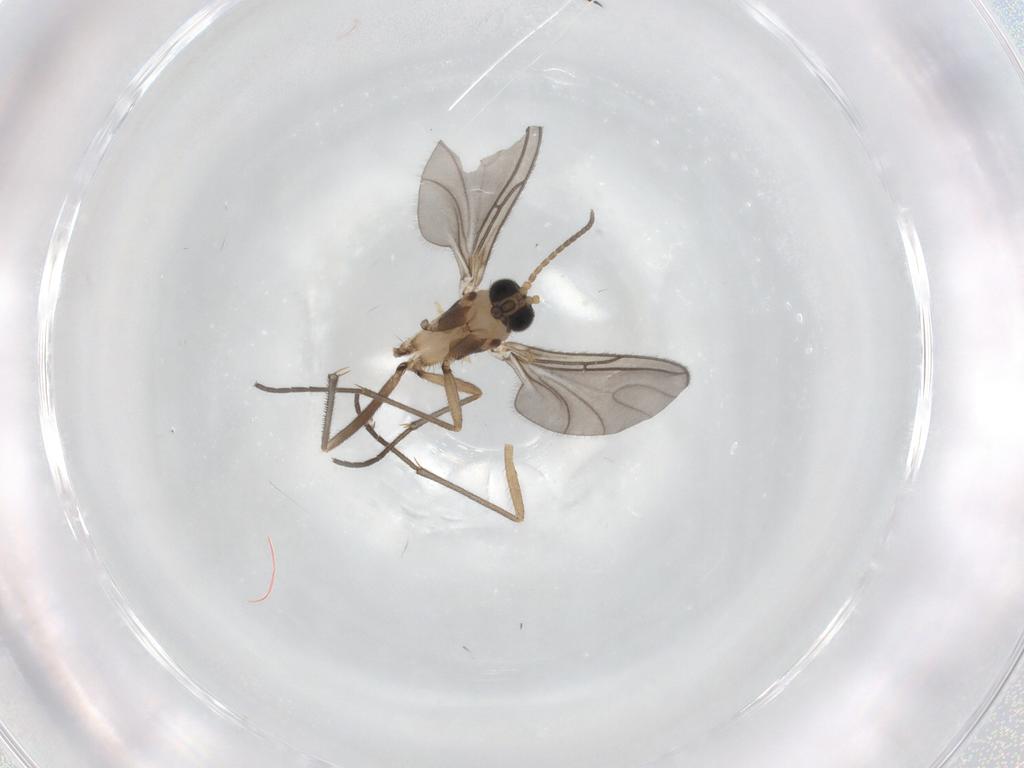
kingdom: Animalia
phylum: Arthropoda
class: Insecta
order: Diptera
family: Sciaridae
